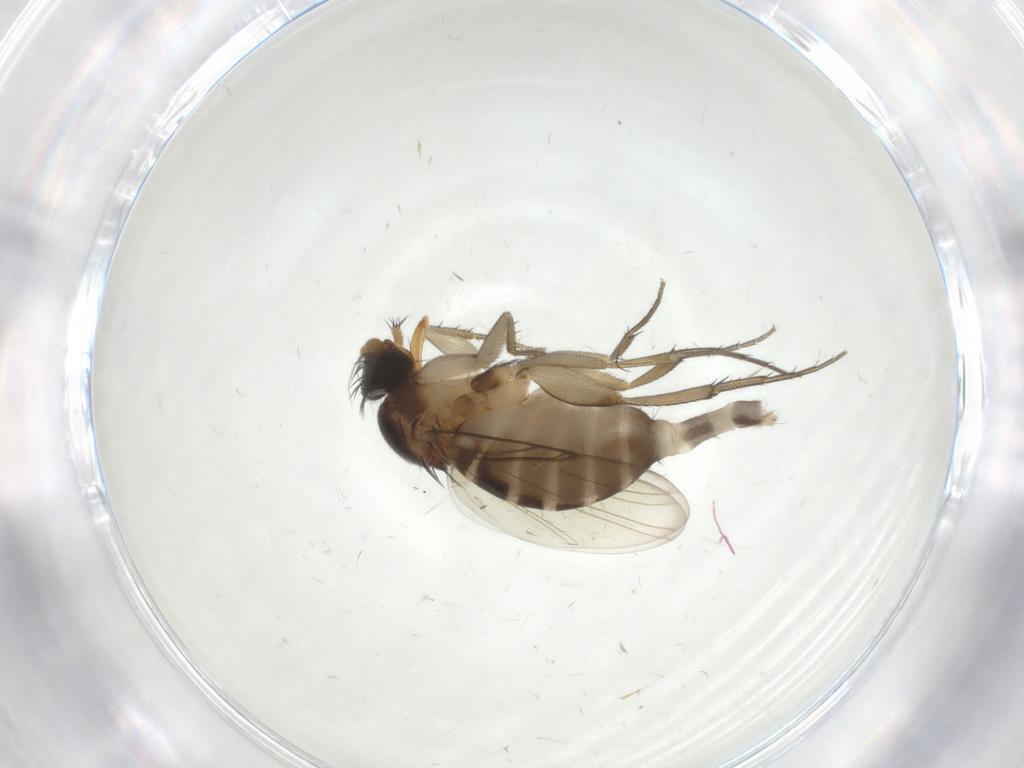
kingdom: Animalia
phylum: Arthropoda
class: Insecta
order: Diptera
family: Phoridae
